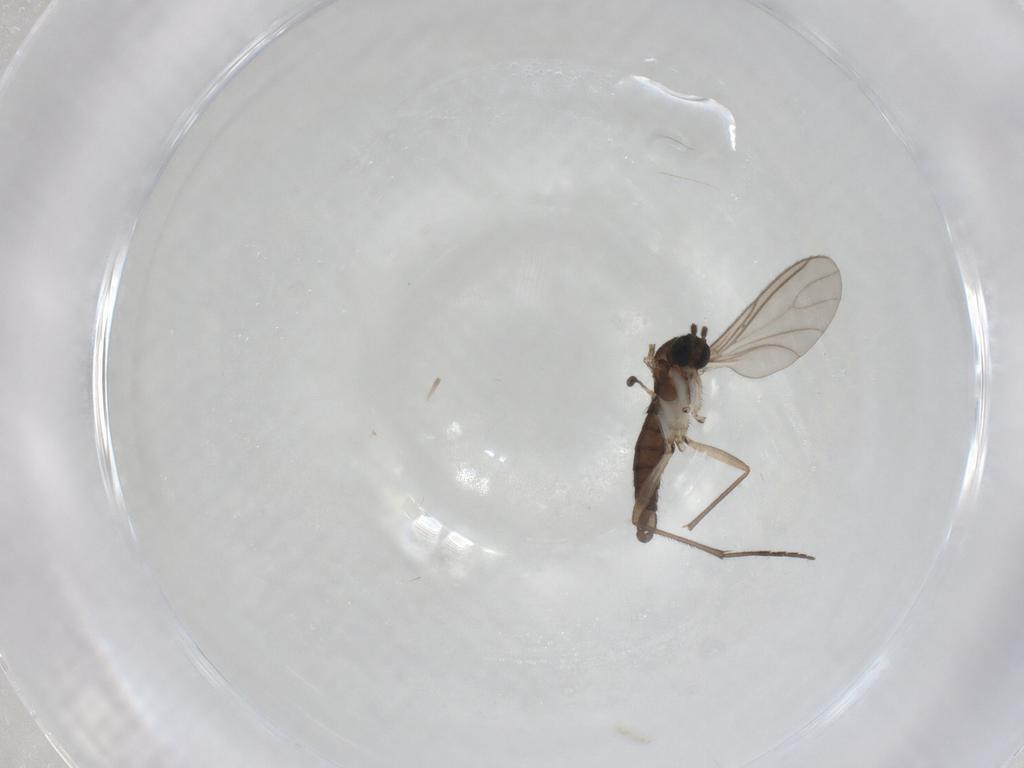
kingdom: Animalia
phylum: Arthropoda
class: Insecta
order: Diptera
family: Sciaridae
